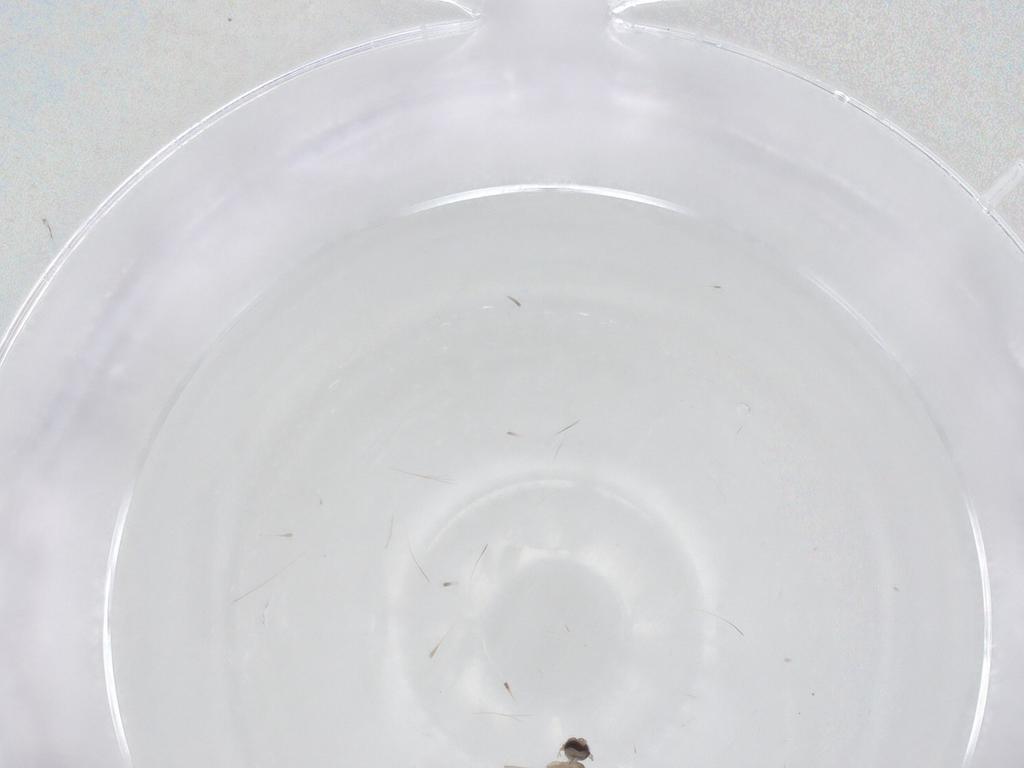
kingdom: Animalia
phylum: Arthropoda
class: Insecta
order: Diptera
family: Cecidomyiidae
